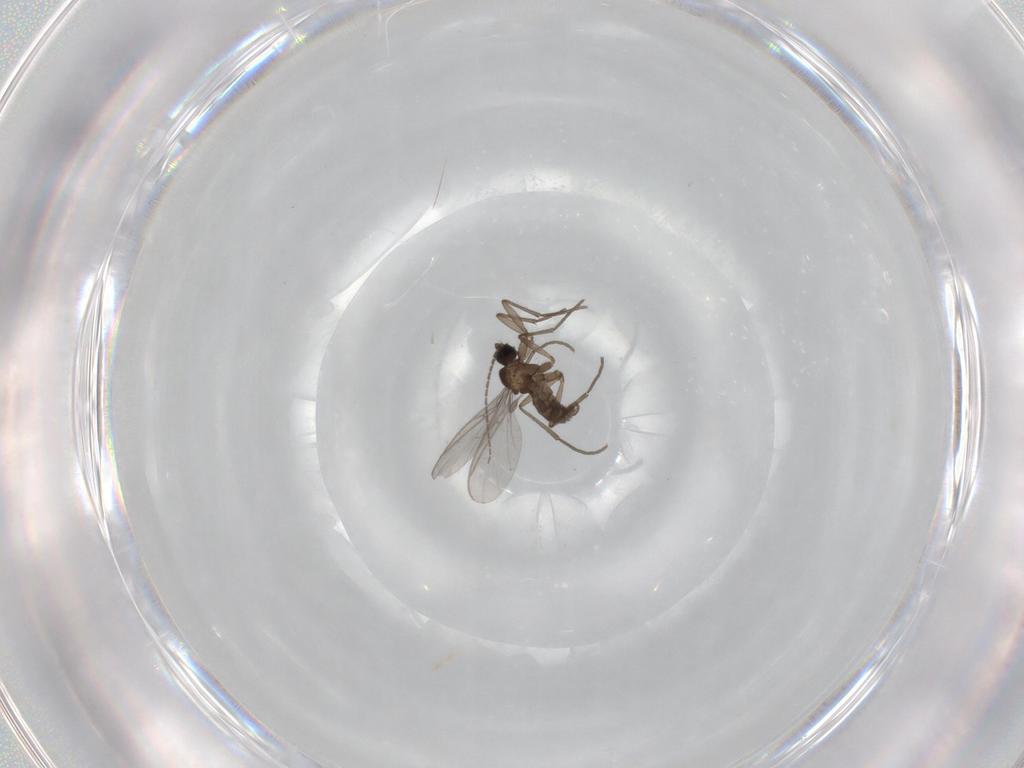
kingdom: Animalia
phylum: Arthropoda
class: Insecta
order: Diptera
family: Sciaridae
